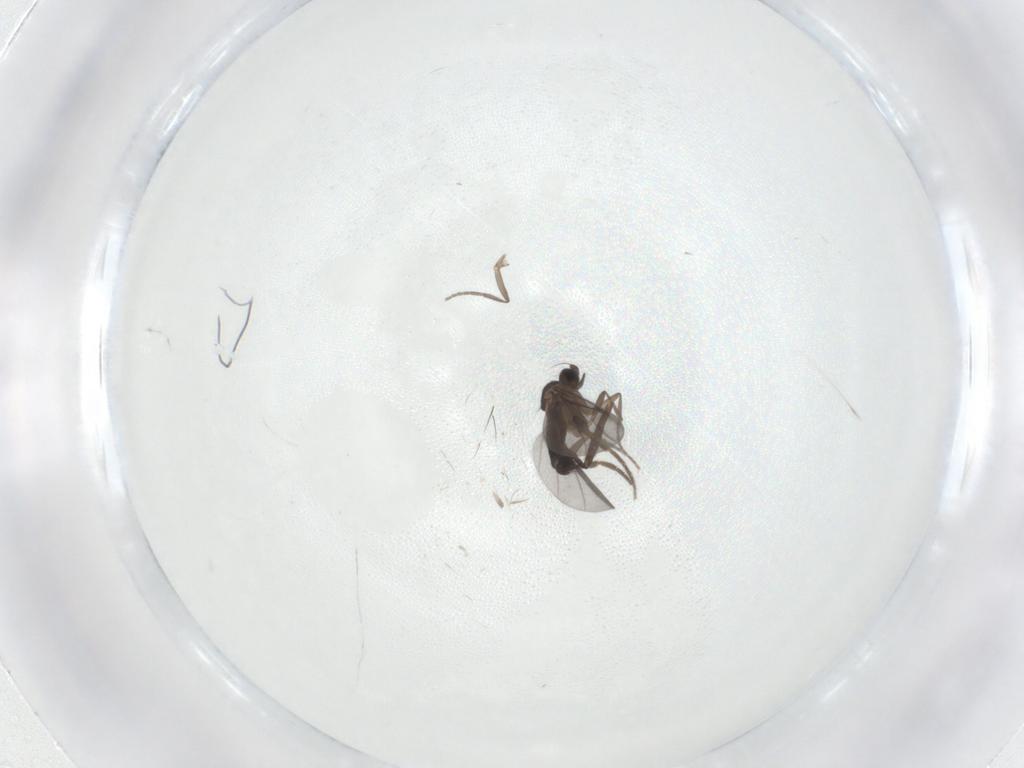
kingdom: Animalia
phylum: Arthropoda
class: Insecta
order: Diptera
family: Phoridae
